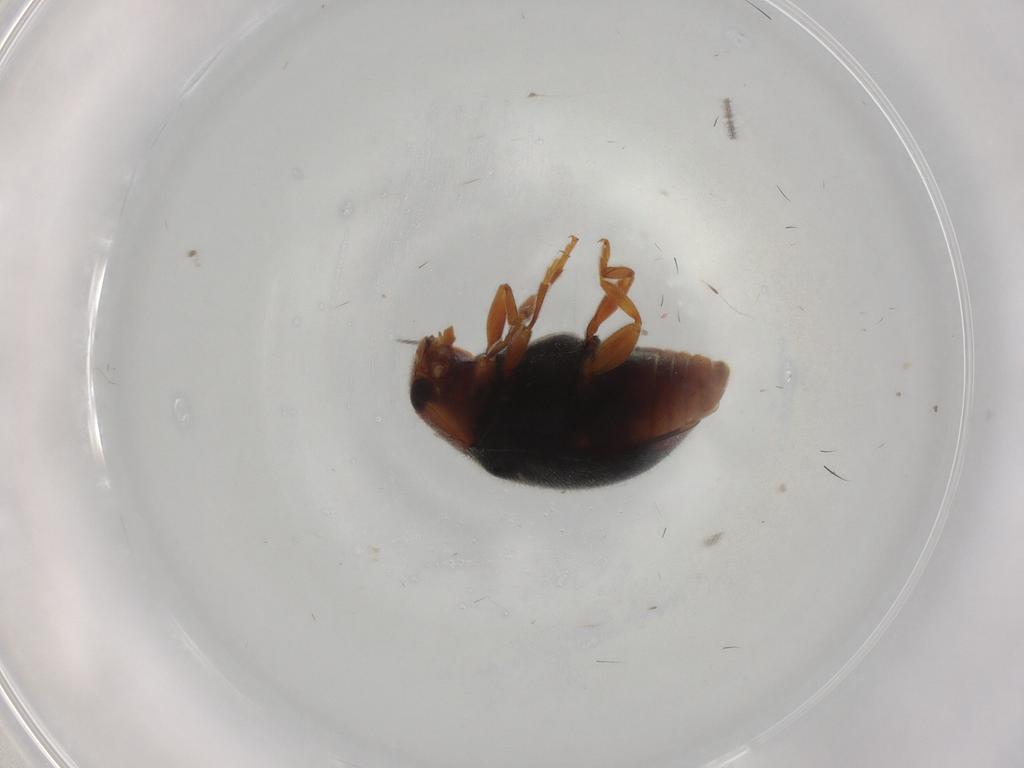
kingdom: Animalia
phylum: Arthropoda
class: Insecta
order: Coleoptera
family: Coccinellidae
